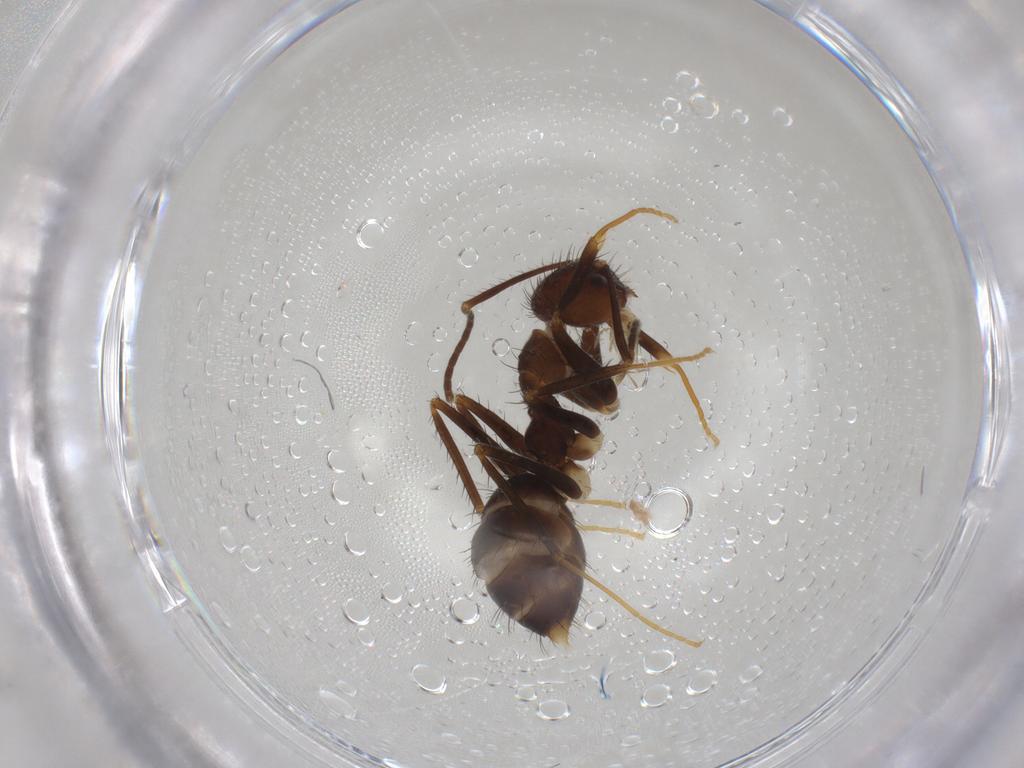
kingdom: Animalia
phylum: Arthropoda
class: Insecta
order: Hymenoptera
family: Formicidae
